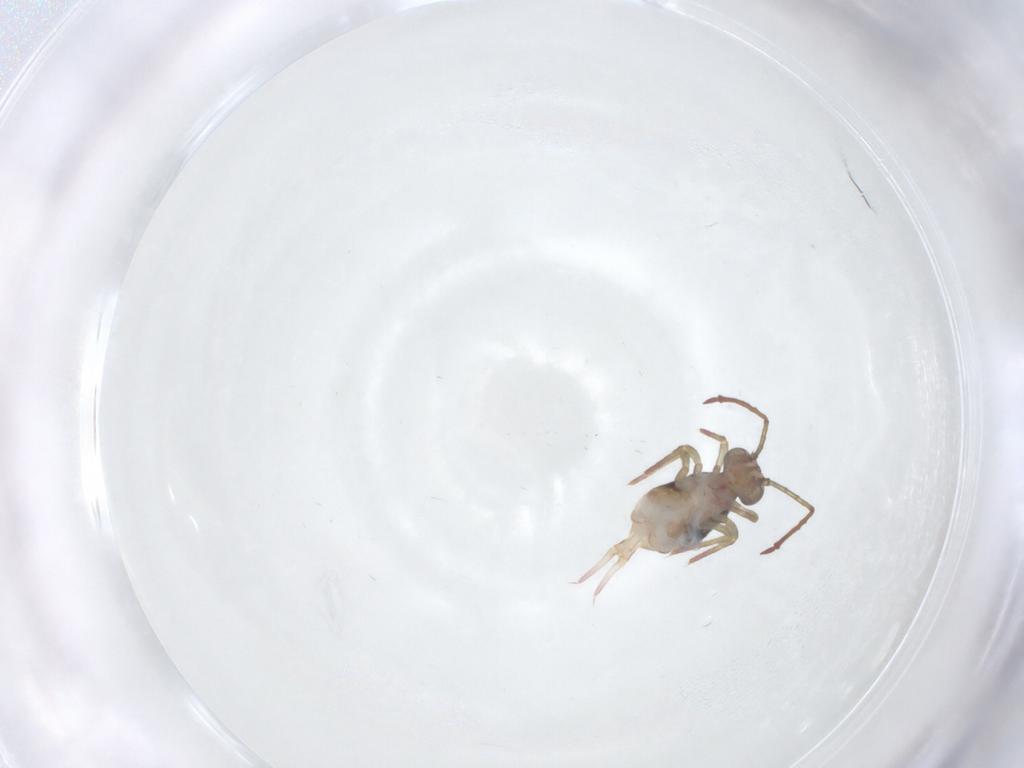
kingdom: Animalia
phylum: Arthropoda
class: Collembola
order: Symphypleona
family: Dicyrtomidae
